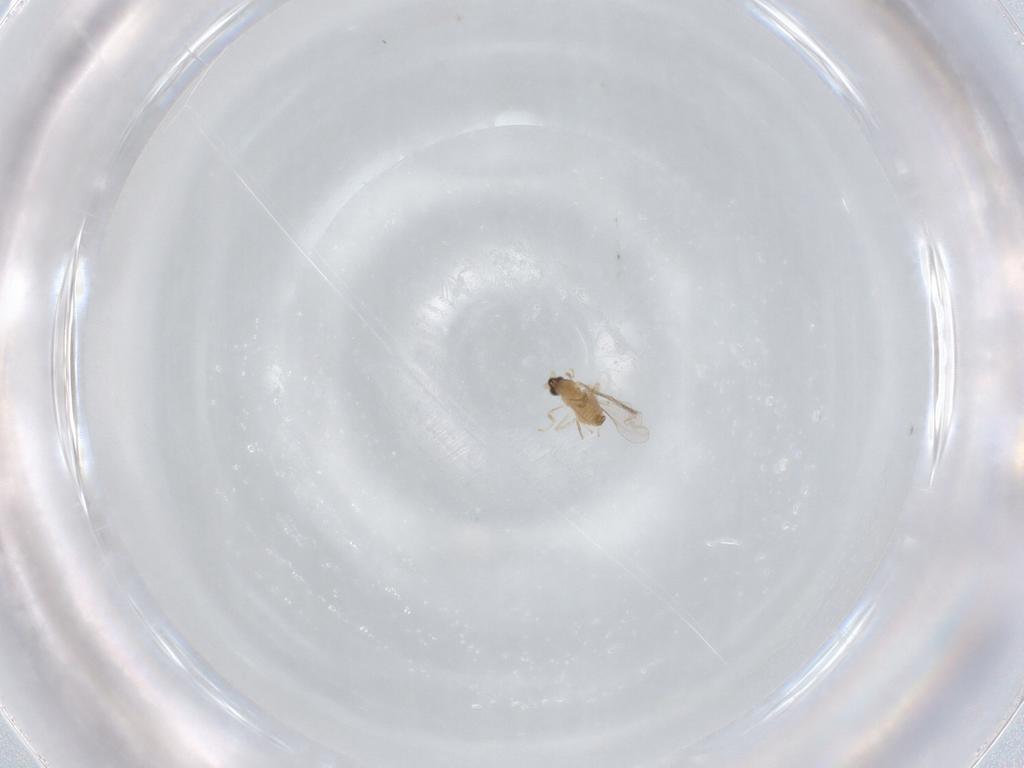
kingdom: Animalia
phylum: Arthropoda
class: Insecta
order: Diptera
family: Cecidomyiidae
